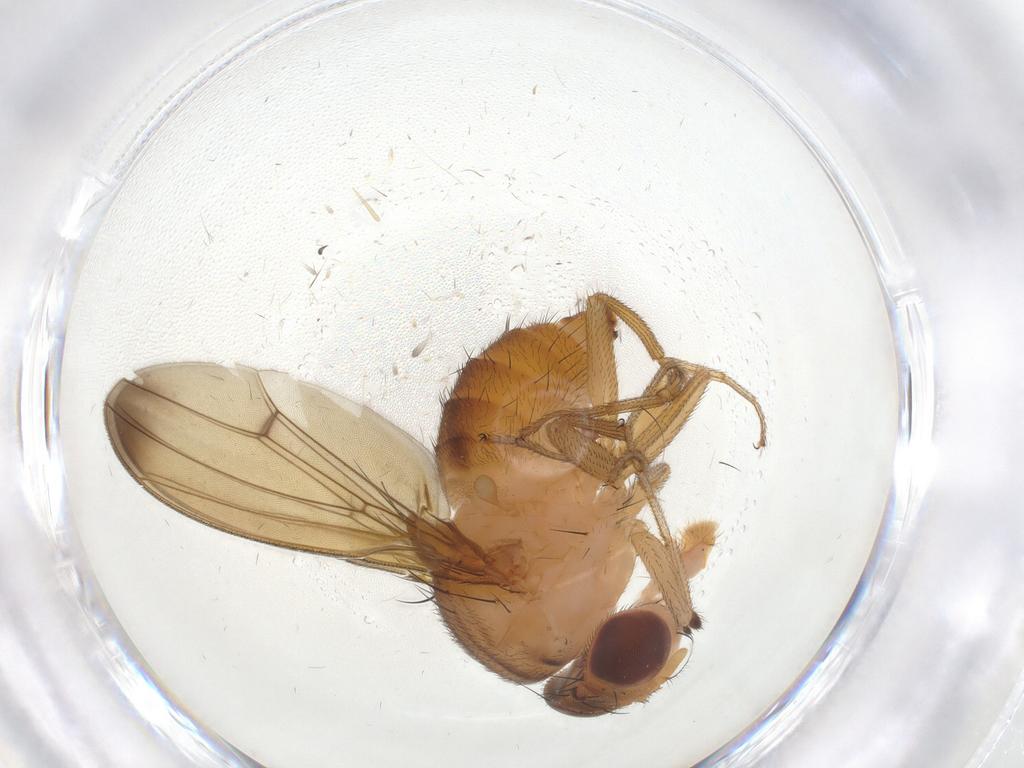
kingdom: Animalia
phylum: Arthropoda
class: Insecta
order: Diptera
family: Drosophilidae
